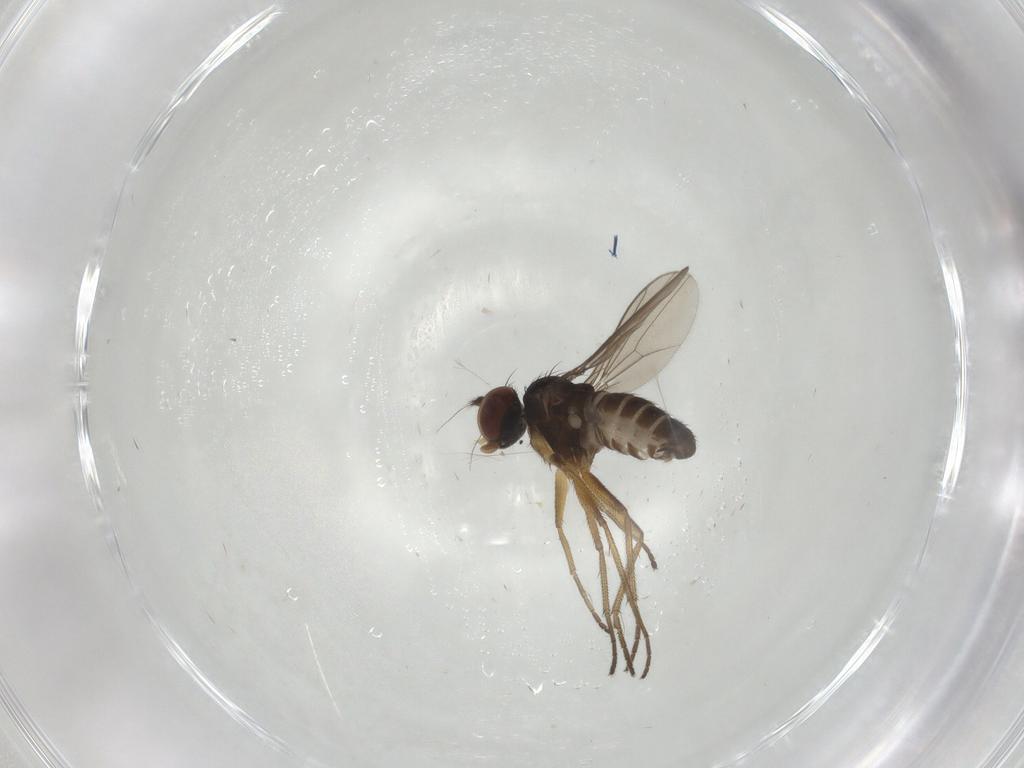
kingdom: Animalia
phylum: Arthropoda
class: Insecta
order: Diptera
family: Dolichopodidae
